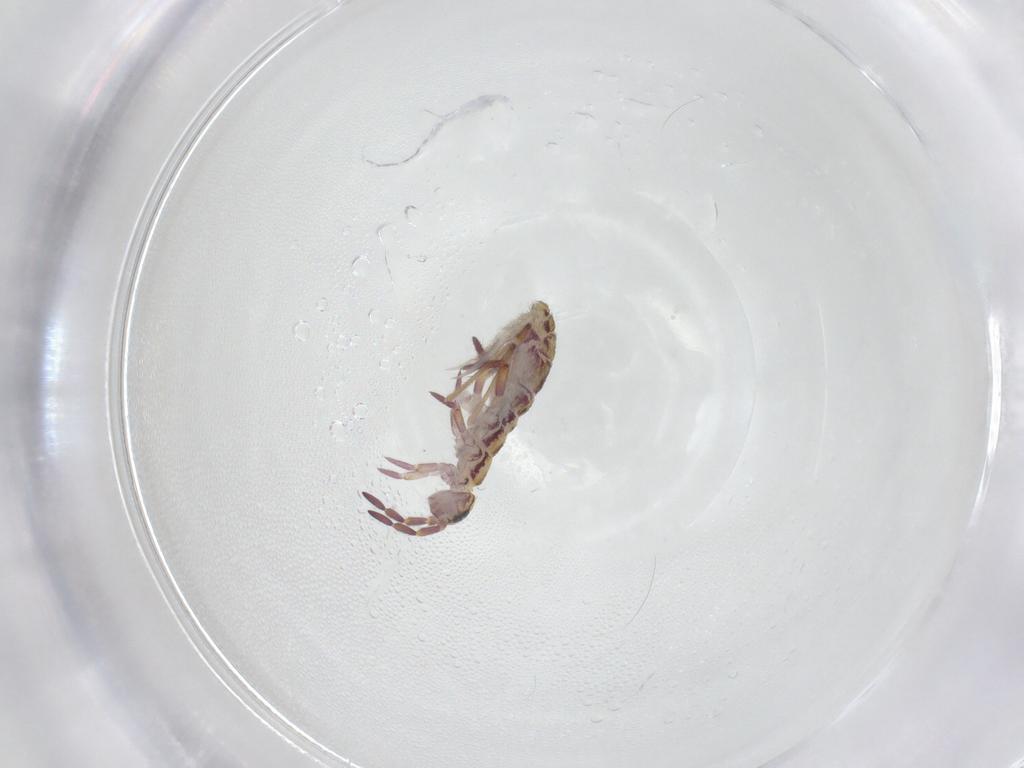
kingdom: Animalia
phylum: Arthropoda
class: Collembola
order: Entomobryomorpha
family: Isotomidae
